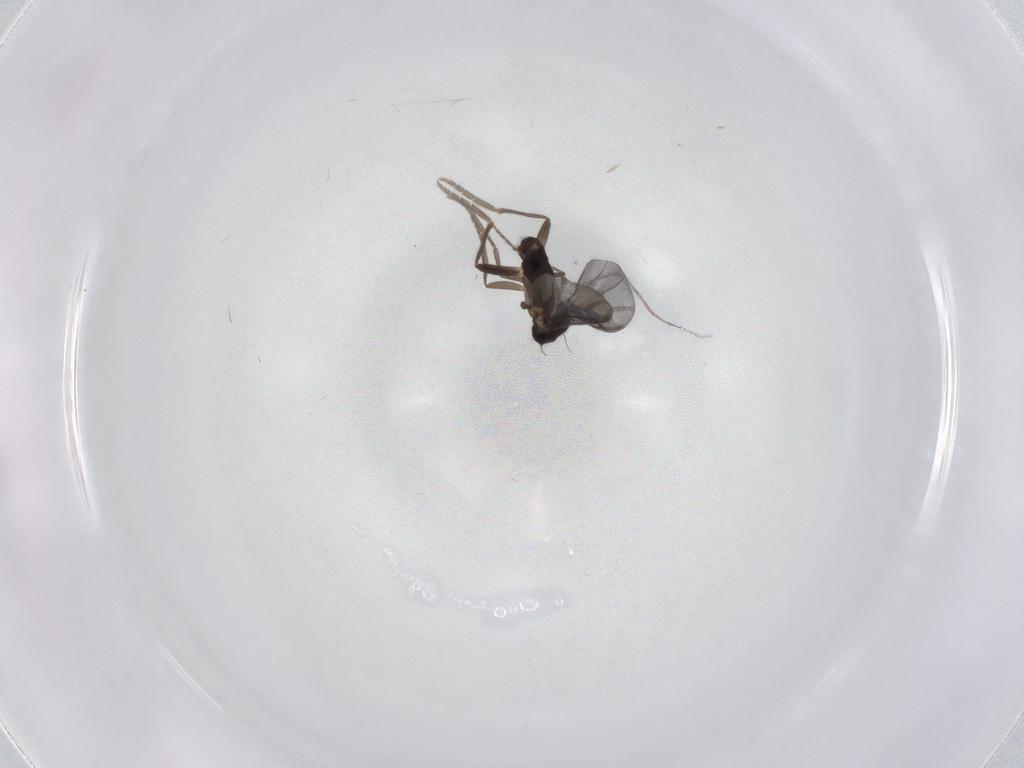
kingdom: Animalia
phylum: Arthropoda
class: Insecta
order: Diptera
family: Phoridae
